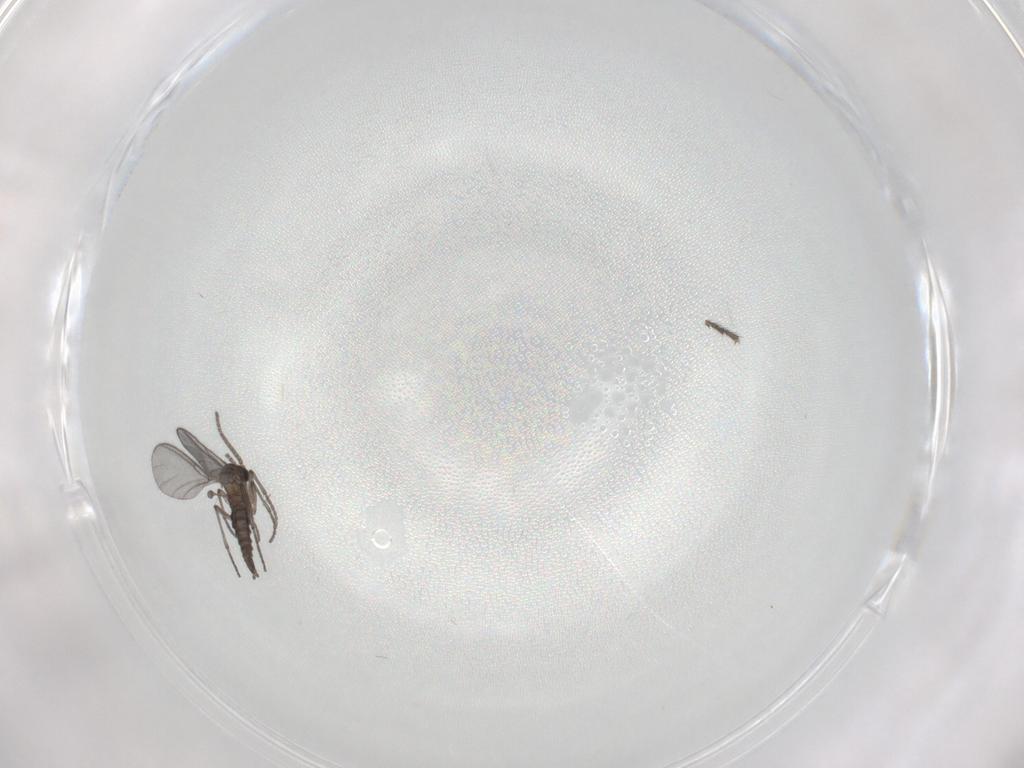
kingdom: Animalia
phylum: Arthropoda
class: Insecta
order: Diptera
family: Sciaridae
